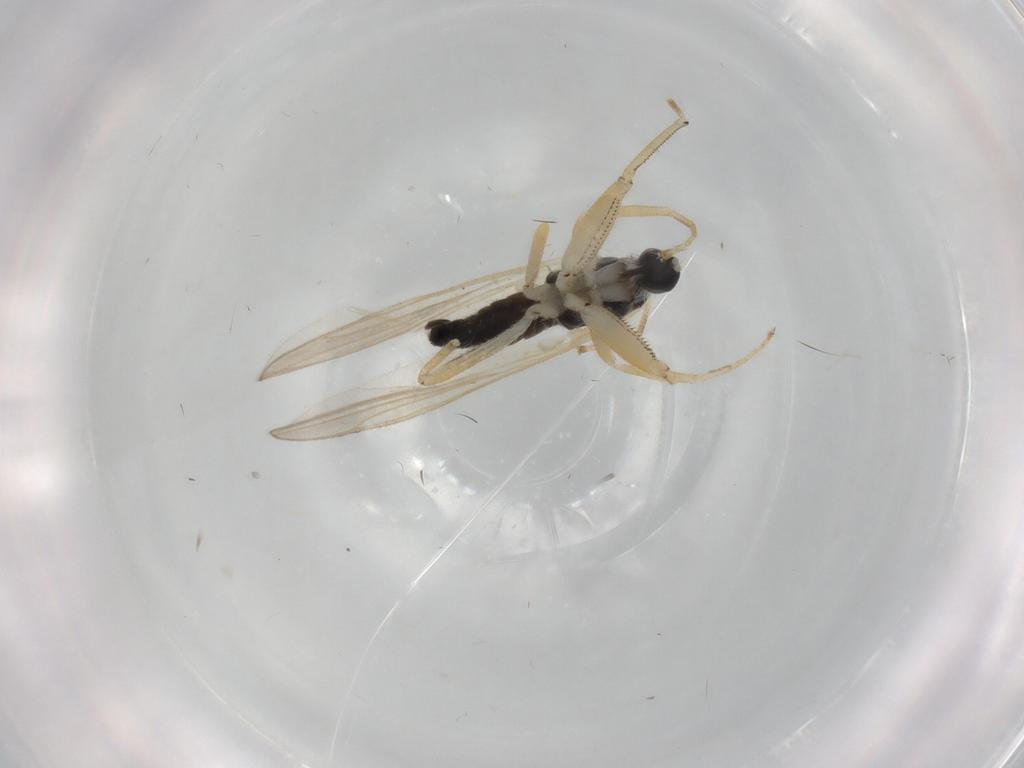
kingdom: Animalia
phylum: Arthropoda
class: Insecta
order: Diptera
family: Hybotidae
